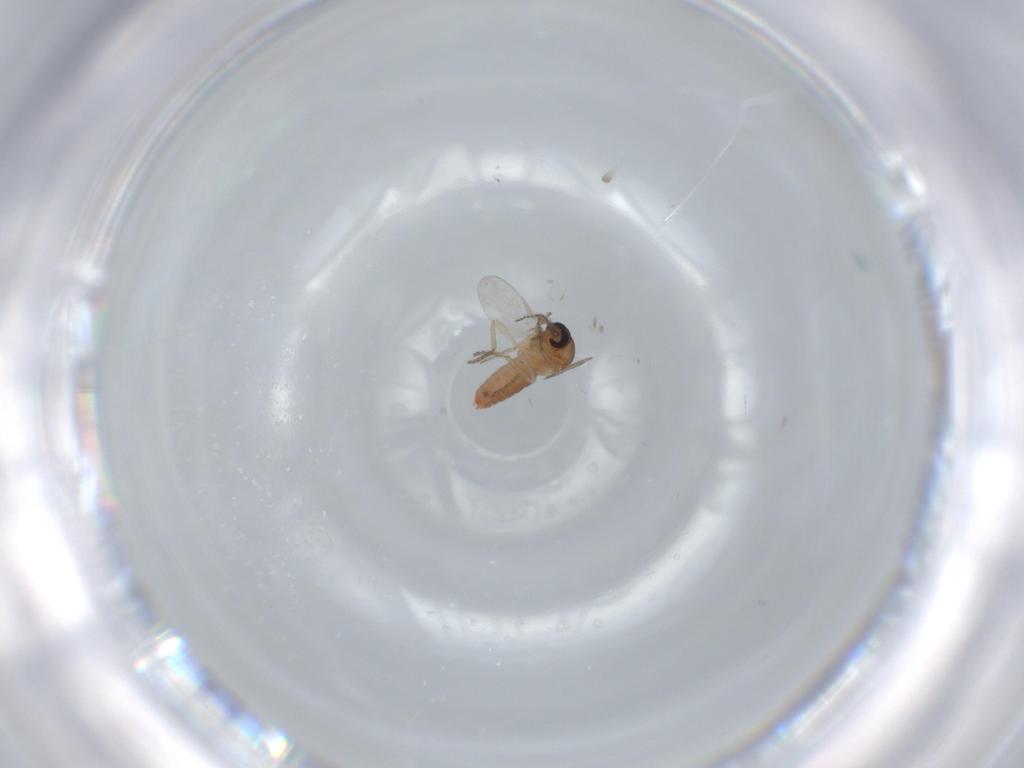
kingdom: Animalia
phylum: Arthropoda
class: Insecta
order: Diptera
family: Ceratopogonidae
